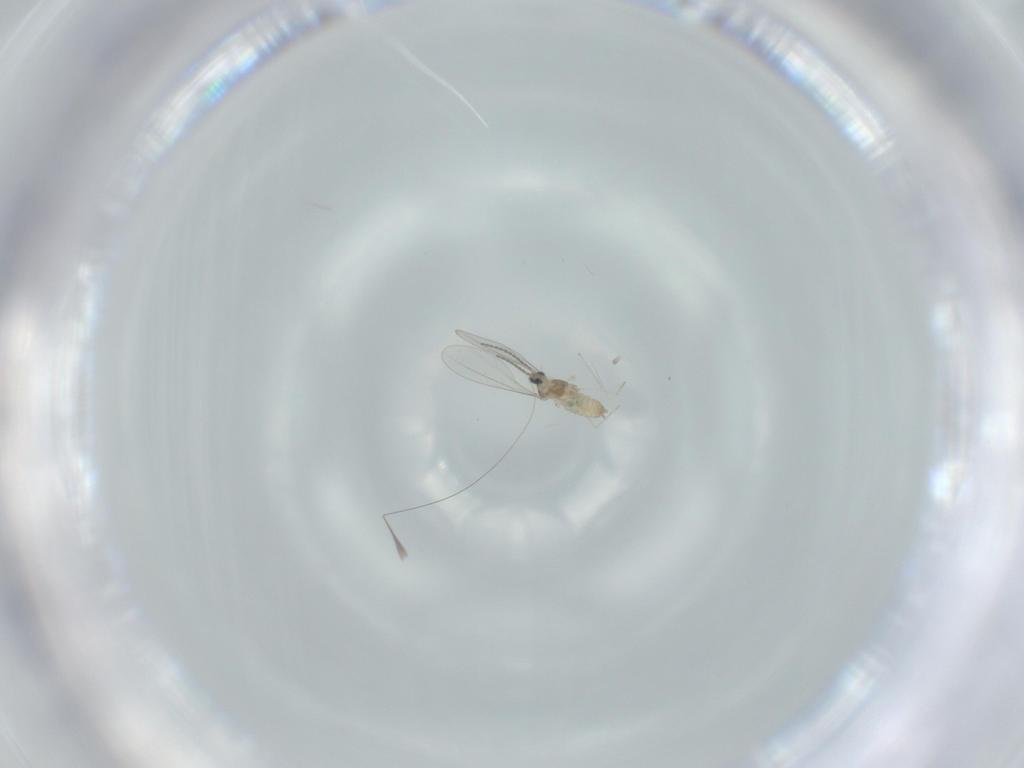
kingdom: Animalia
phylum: Arthropoda
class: Insecta
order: Diptera
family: Cecidomyiidae
